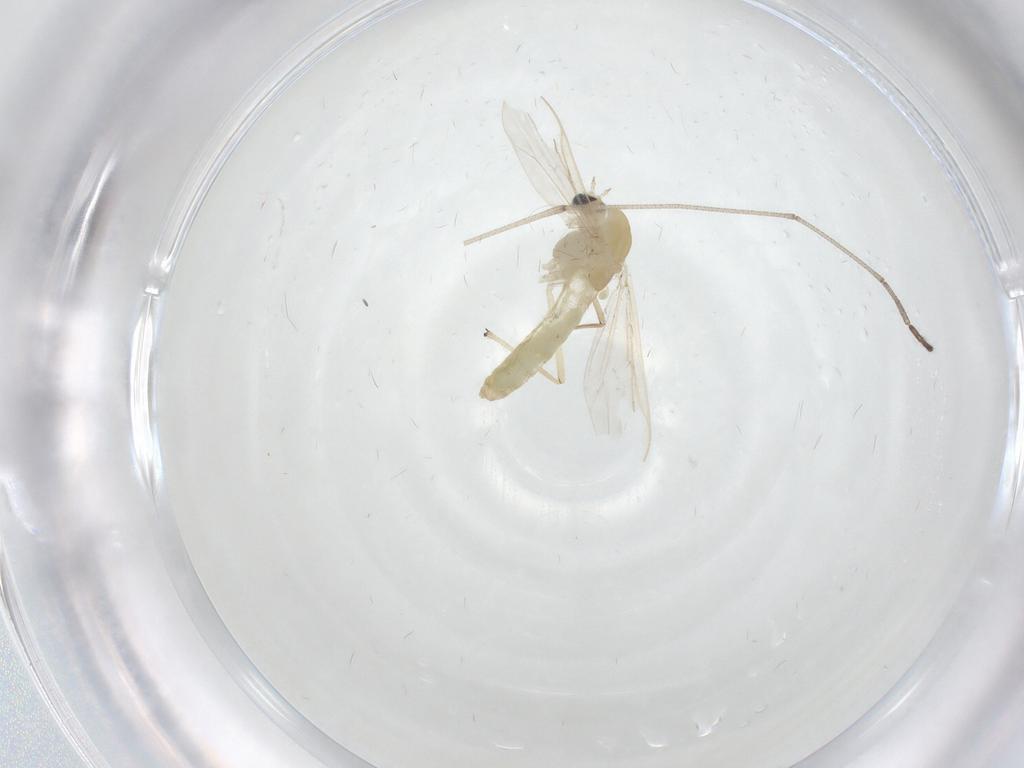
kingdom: Animalia
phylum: Arthropoda
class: Insecta
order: Diptera
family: Chironomidae
